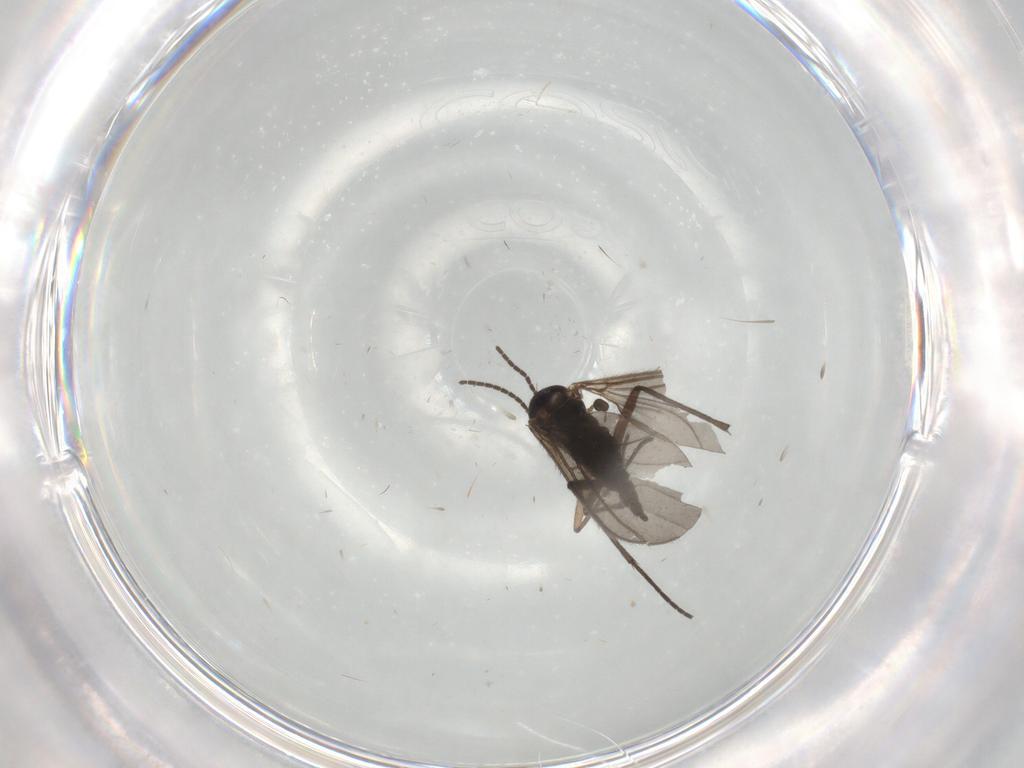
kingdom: Animalia
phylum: Arthropoda
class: Insecta
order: Diptera
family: Sciaridae
